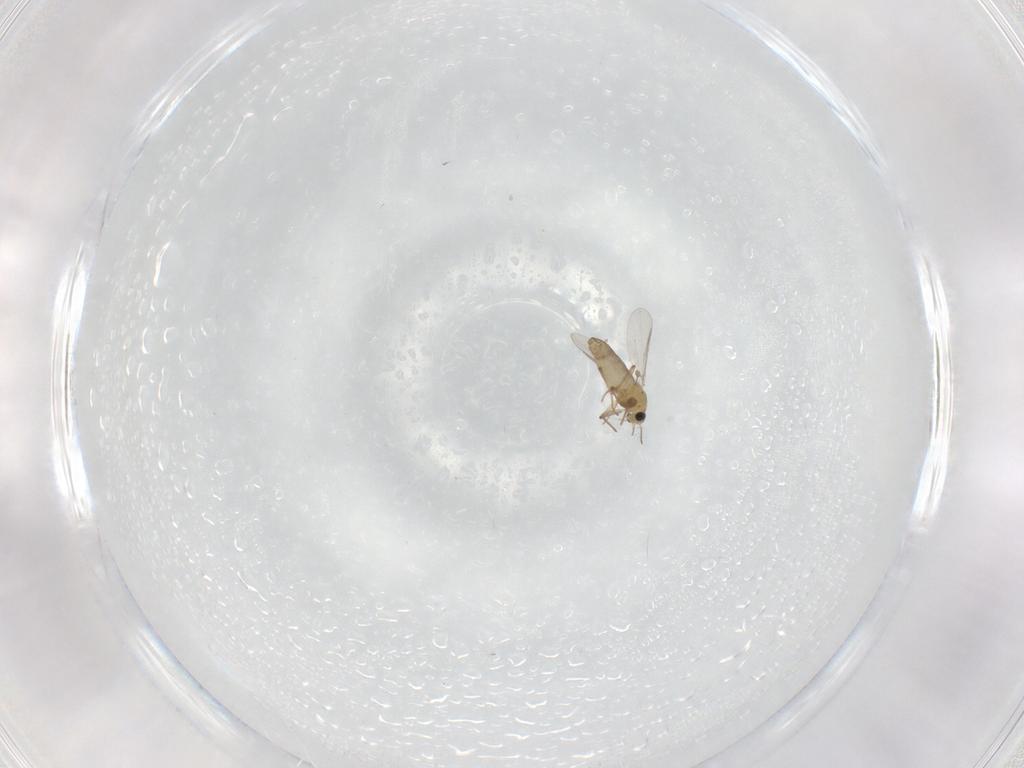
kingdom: Animalia
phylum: Arthropoda
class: Insecta
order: Diptera
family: Chironomidae
